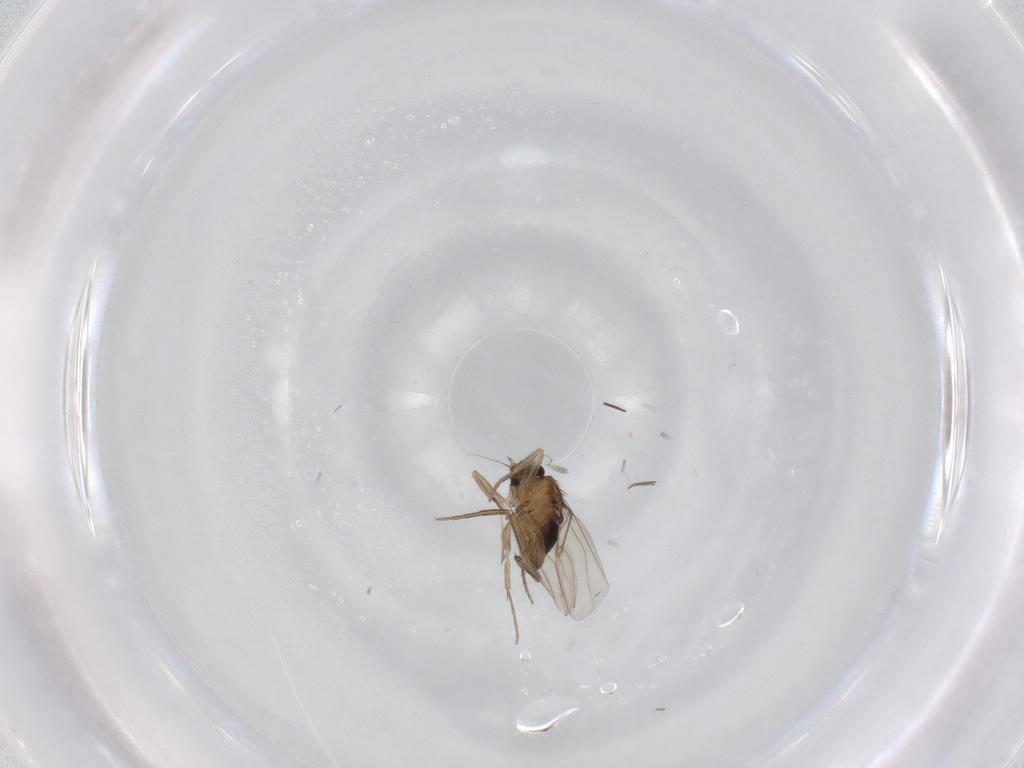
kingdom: Animalia
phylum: Arthropoda
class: Insecta
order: Diptera
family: Phoridae
